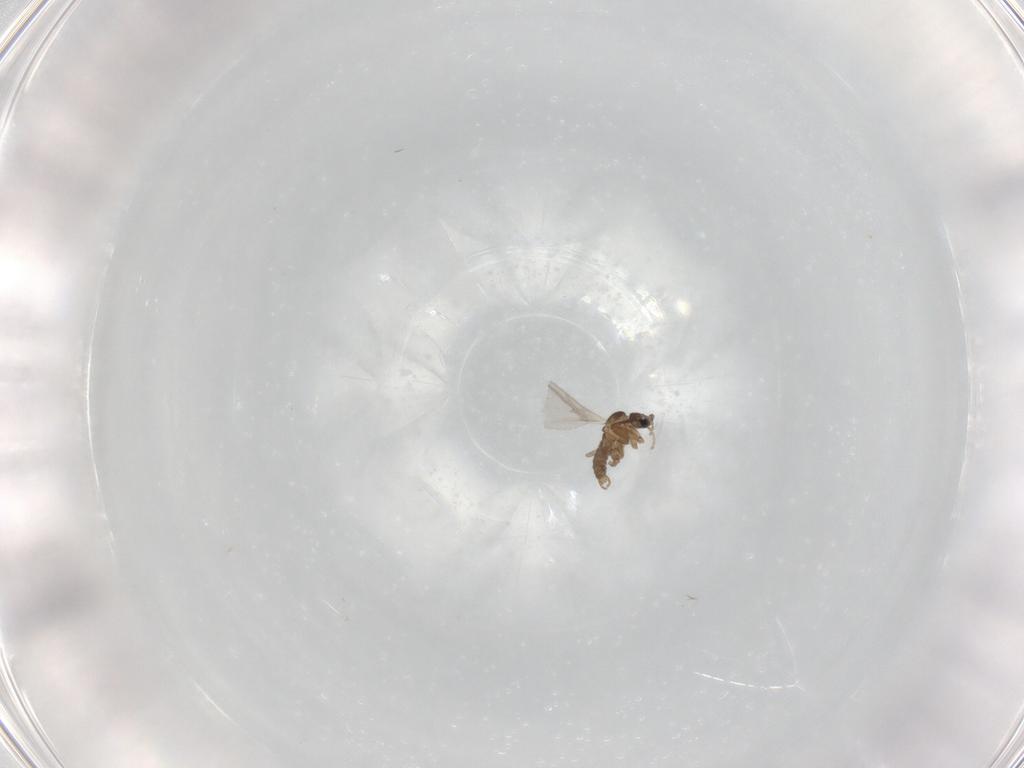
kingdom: Animalia
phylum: Arthropoda
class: Insecta
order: Diptera
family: Sciaridae
